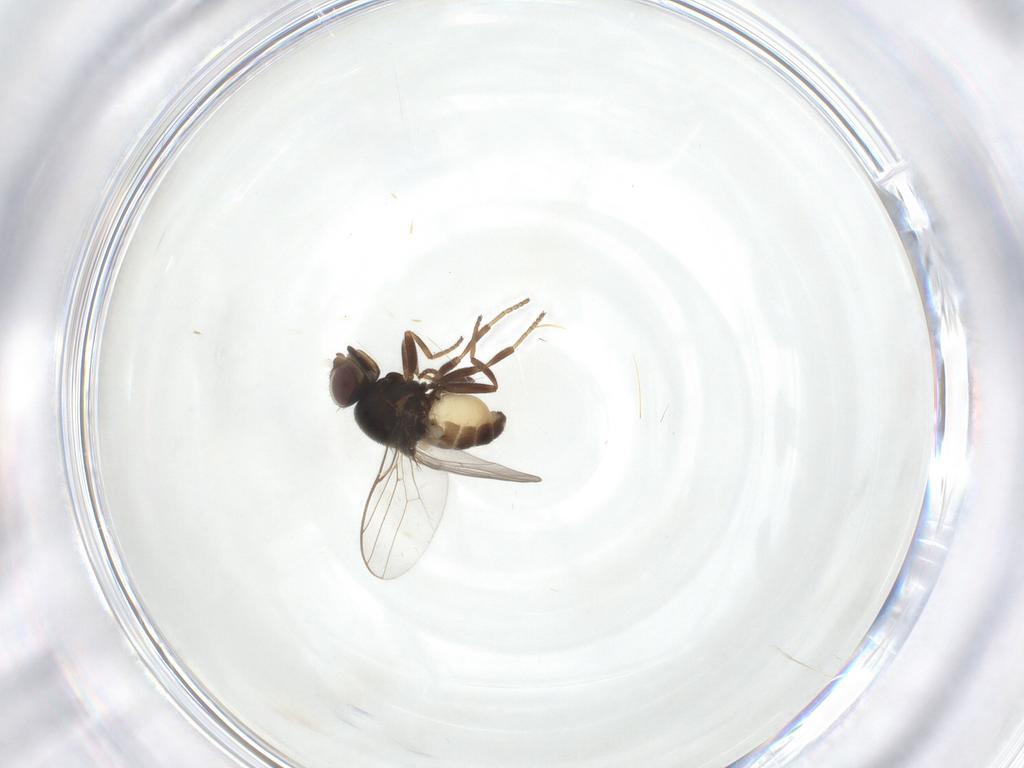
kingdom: Animalia
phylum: Arthropoda
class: Insecta
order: Diptera
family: Chloropidae
